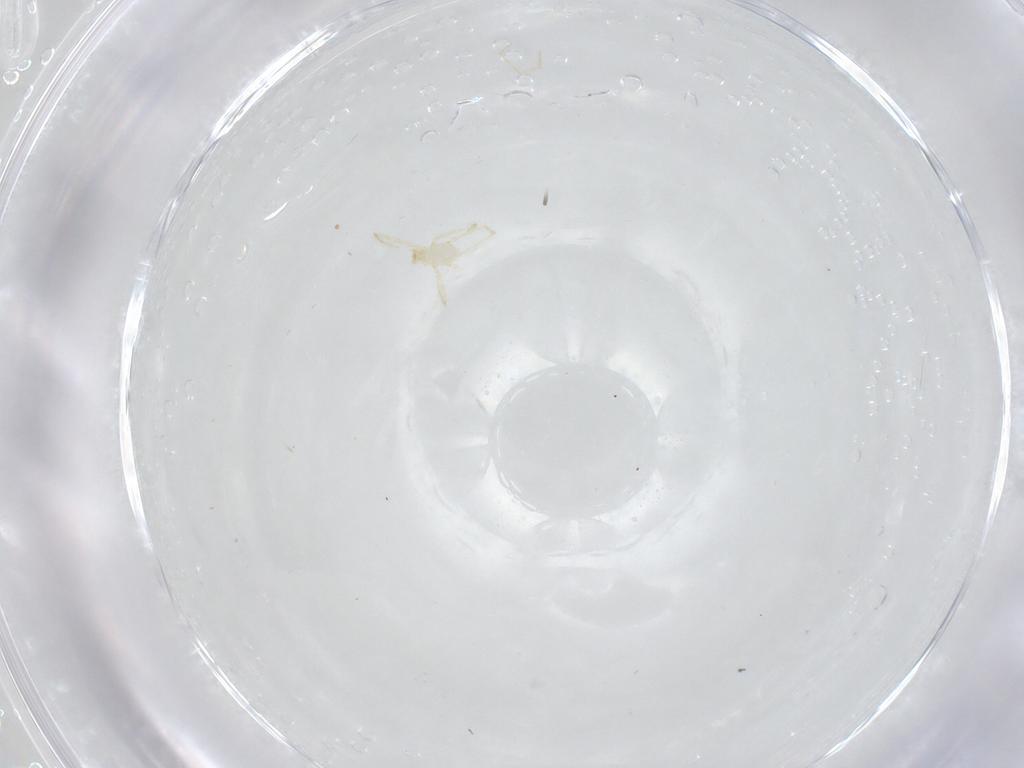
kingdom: Animalia
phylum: Arthropoda
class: Arachnida
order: Trombidiformes
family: Erythraeidae
